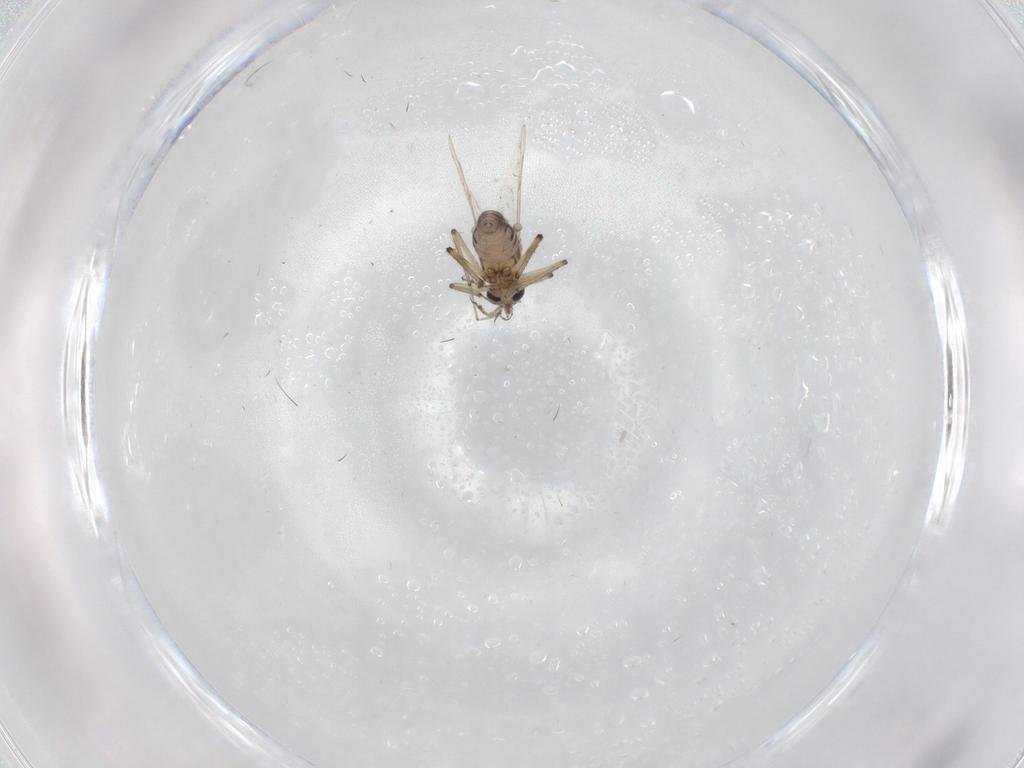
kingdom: Animalia
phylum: Arthropoda
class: Insecta
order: Diptera
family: Ceratopogonidae
